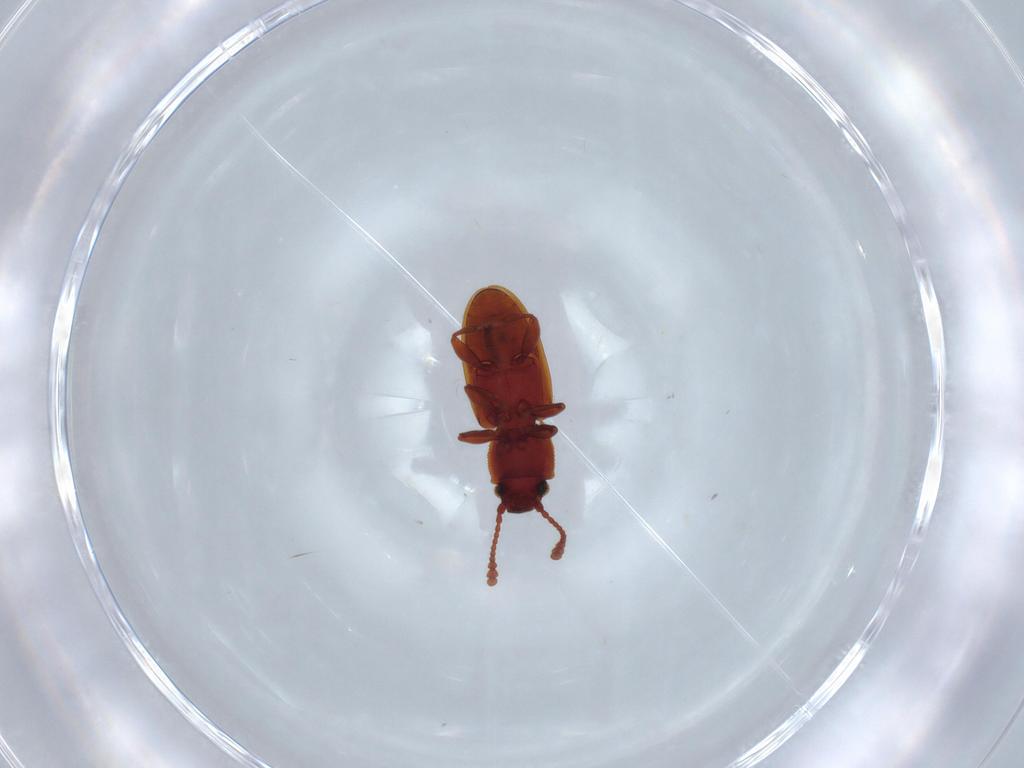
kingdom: Animalia
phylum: Arthropoda
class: Insecta
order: Coleoptera
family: Silvanidae
